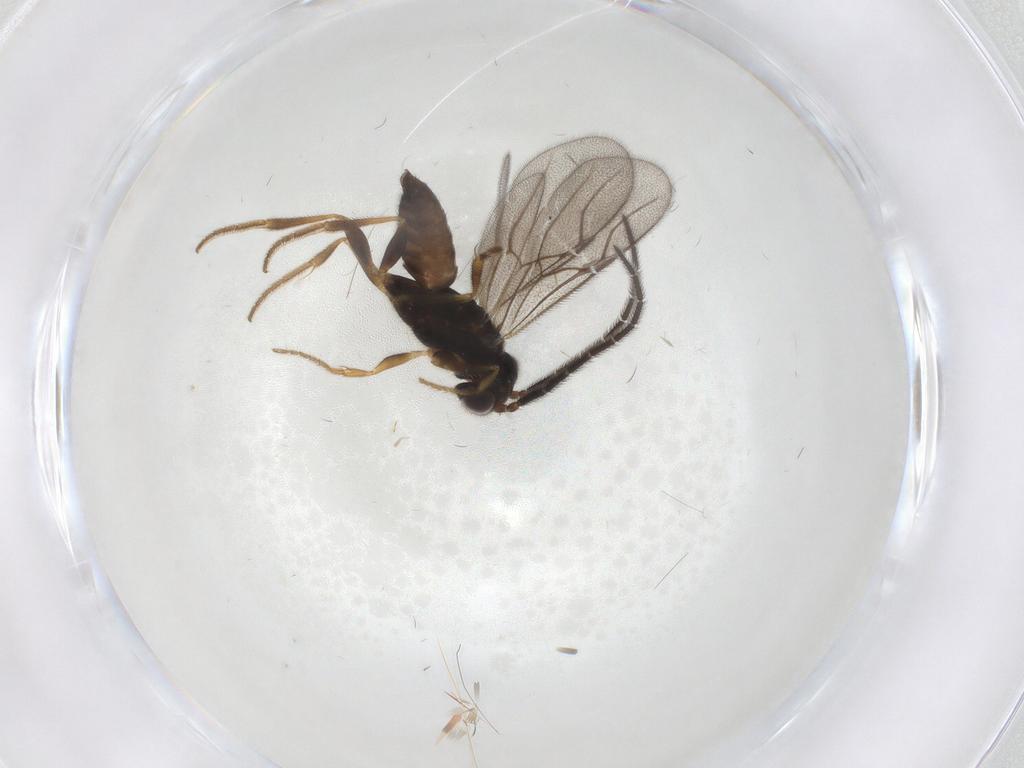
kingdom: Animalia
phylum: Arthropoda
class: Insecta
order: Hymenoptera
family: Dryinidae
